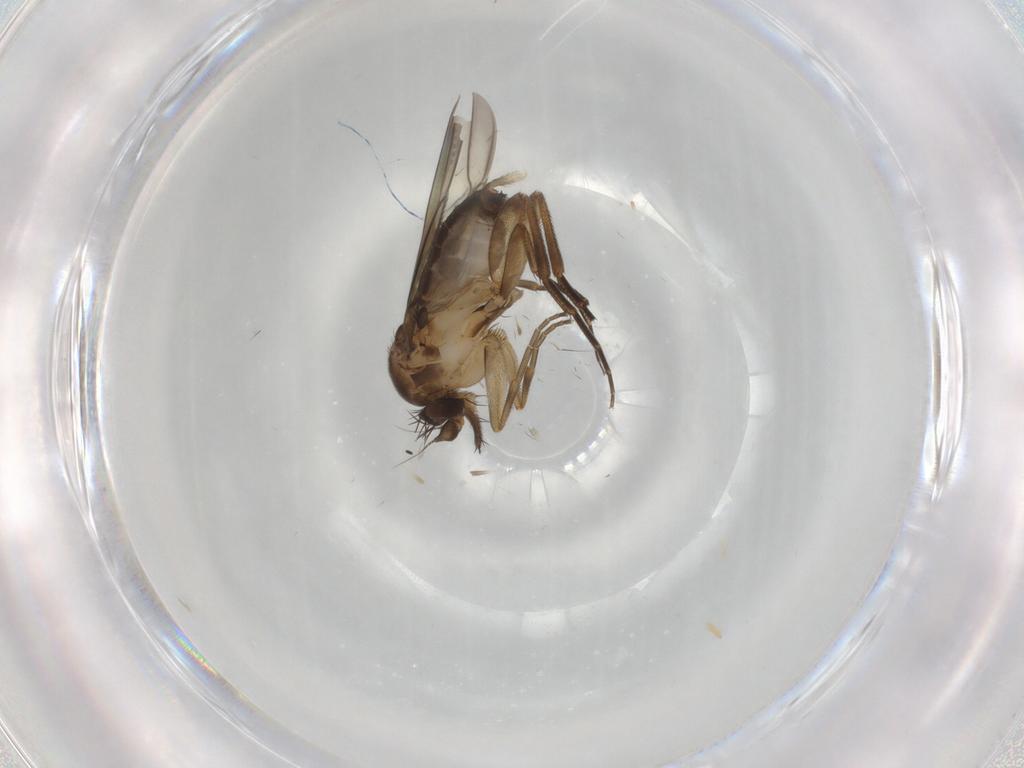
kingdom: Animalia
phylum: Arthropoda
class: Insecta
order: Diptera
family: Phoridae
